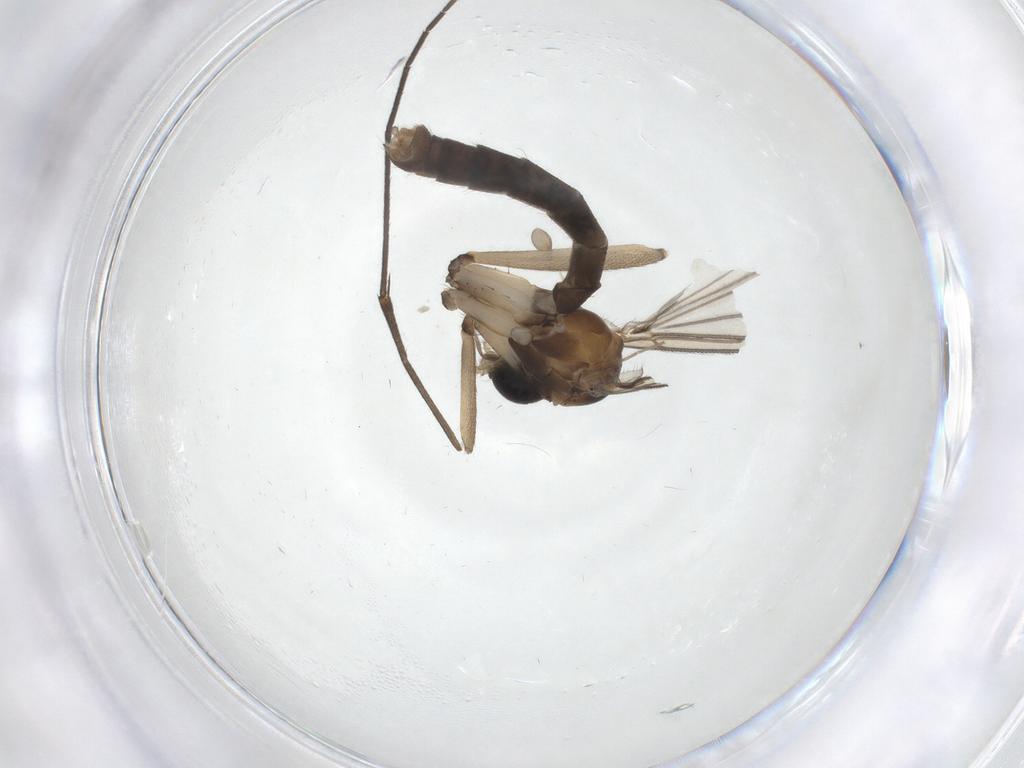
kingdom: Animalia
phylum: Arthropoda
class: Insecta
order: Diptera
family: Mycetophilidae
